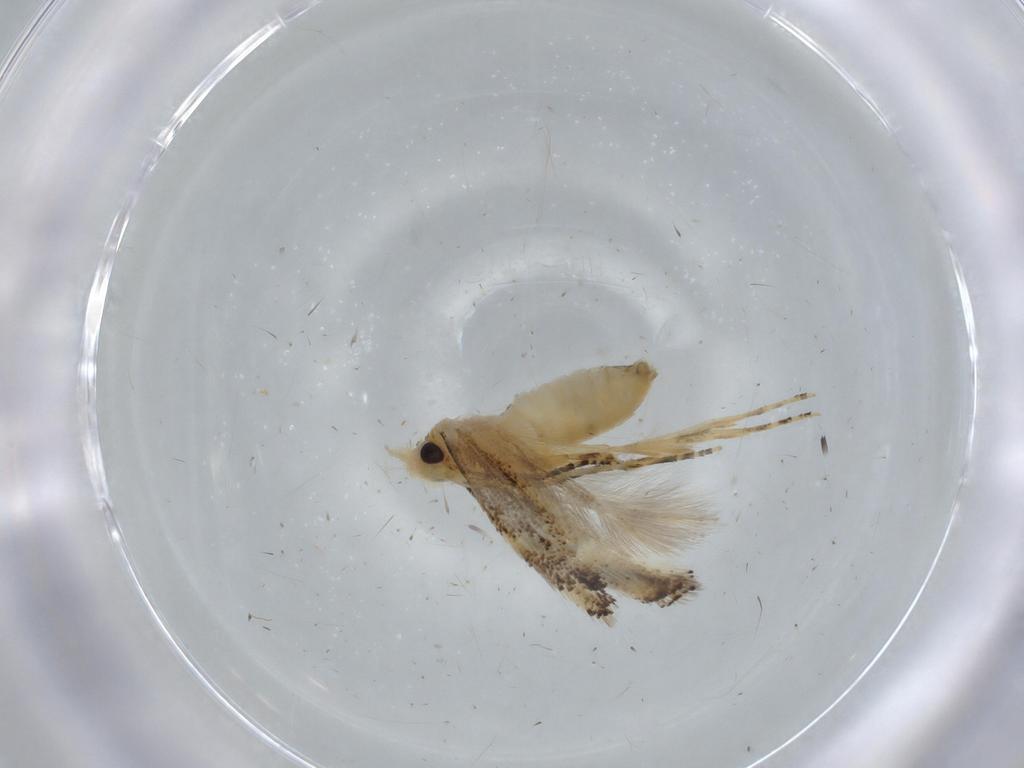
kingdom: Animalia
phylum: Arthropoda
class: Insecta
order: Lepidoptera
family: Bucculatricidae
